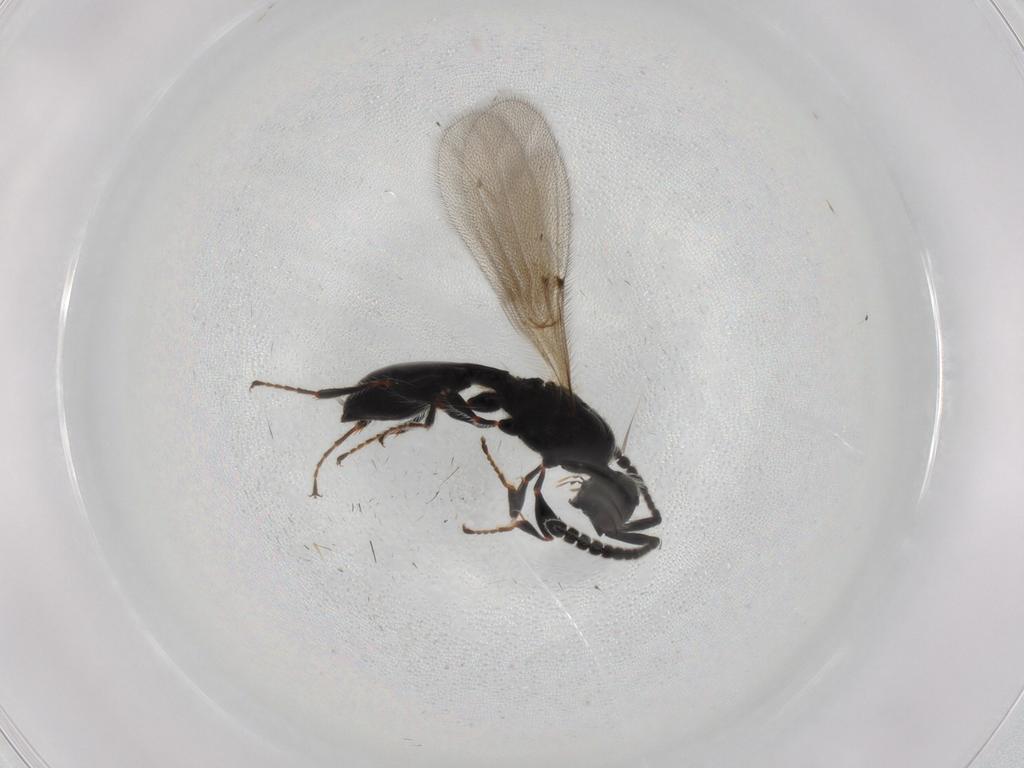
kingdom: Animalia
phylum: Arthropoda
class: Insecta
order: Hymenoptera
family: Diapriidae
